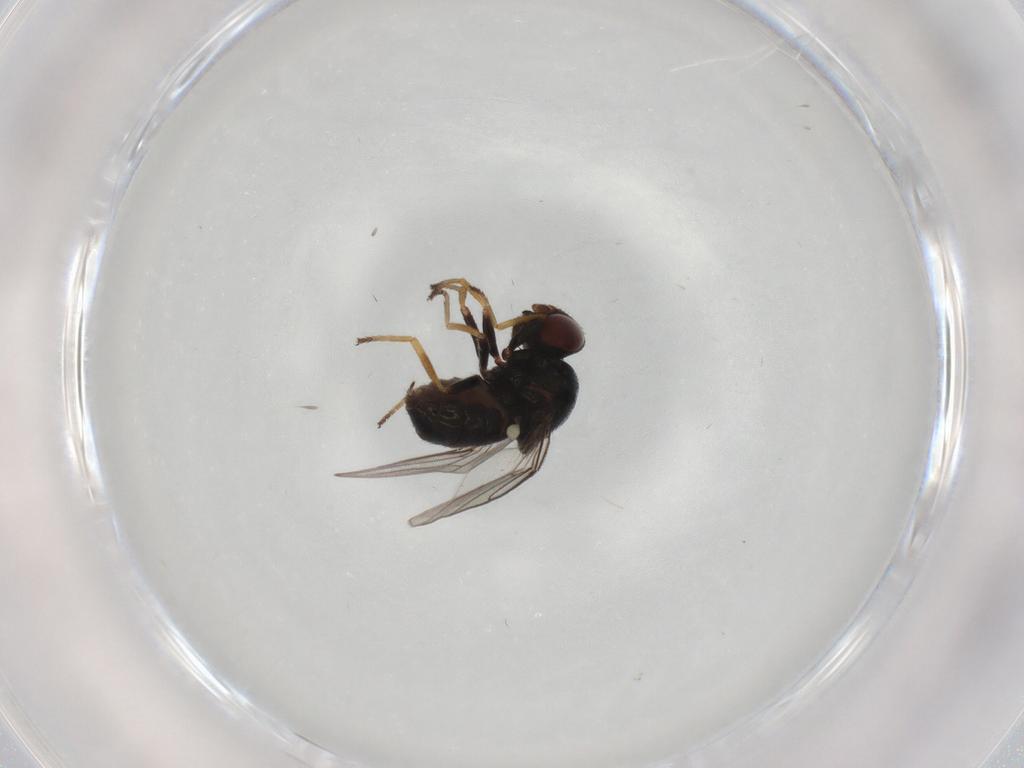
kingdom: Animalia
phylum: Arthropoda
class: Insecta
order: Diptera
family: Chloropidae
